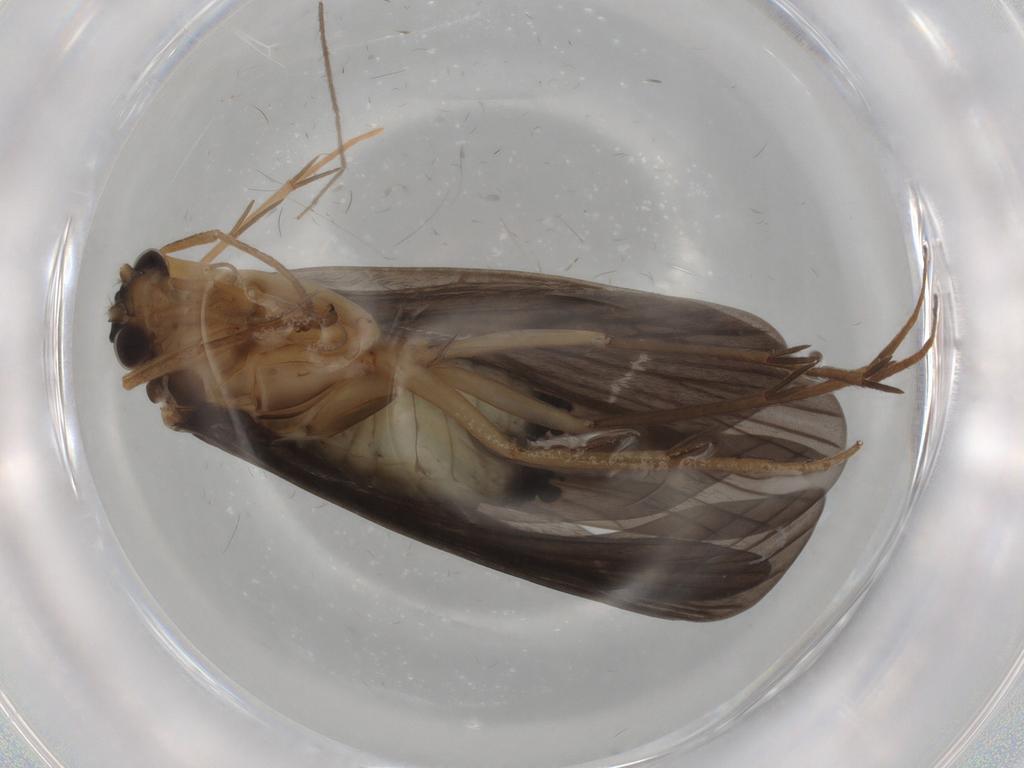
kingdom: Animalia
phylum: Arthropoda
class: Insecta
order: Trichoptera
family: Philopotamidae
